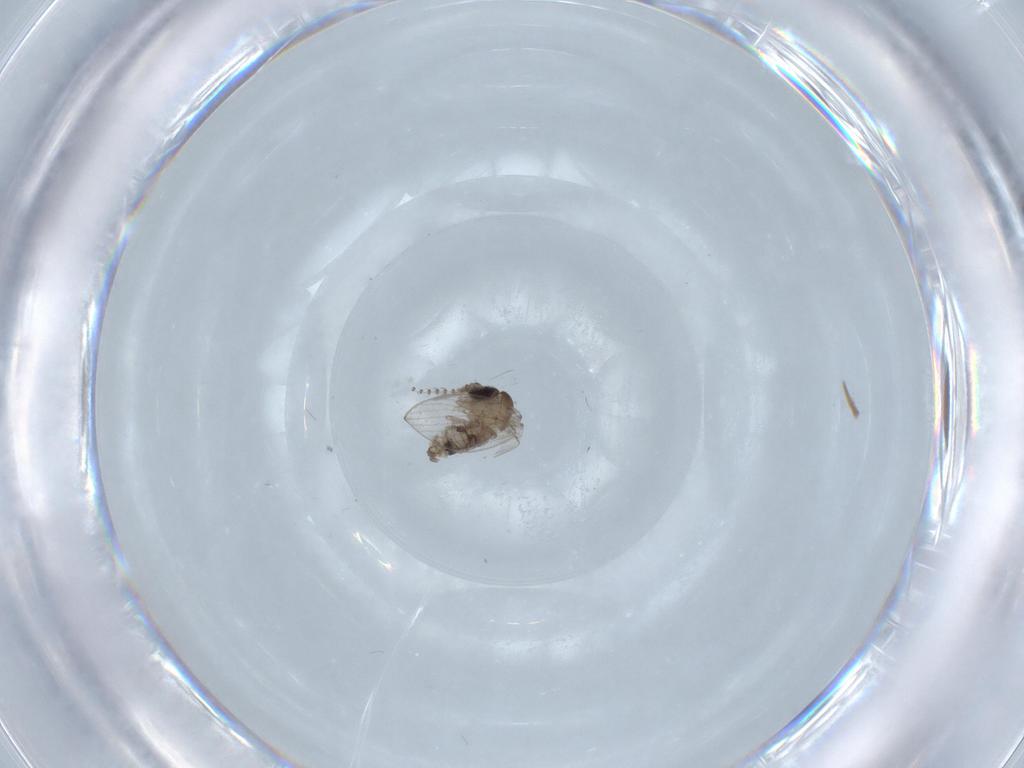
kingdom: Animalia
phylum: Arthropoda
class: Insecta
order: Diptera
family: Psychodidae
